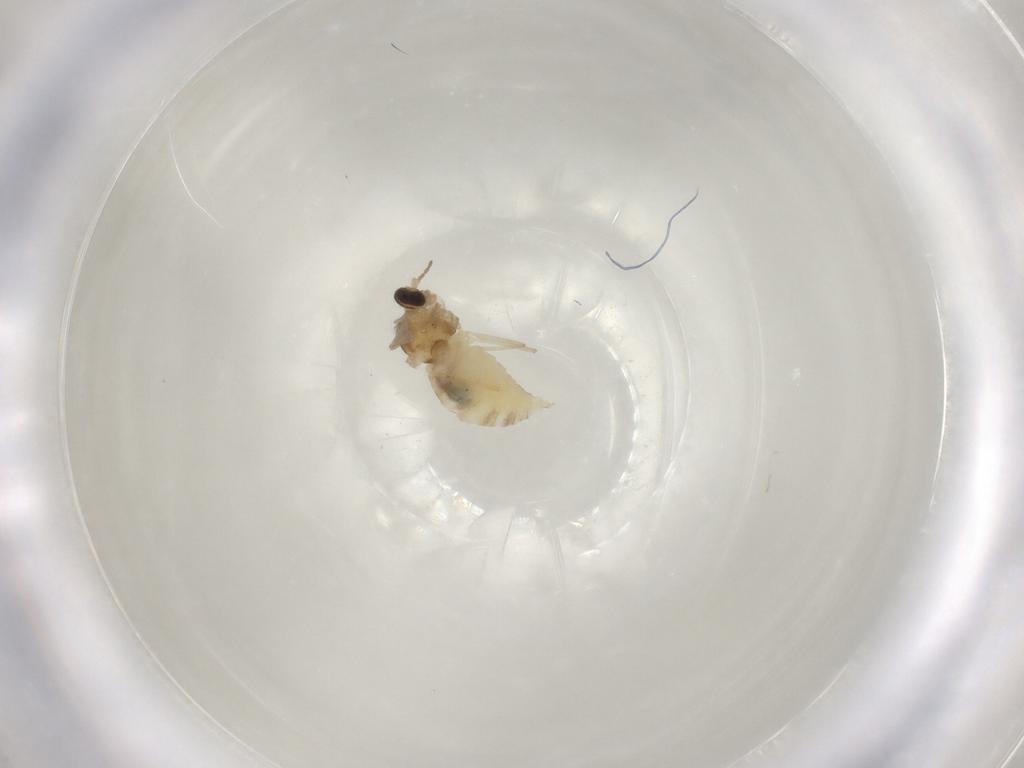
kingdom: Animalia
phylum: Arthropoda
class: Insecta
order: Diptera
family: Cecidomyiidae
